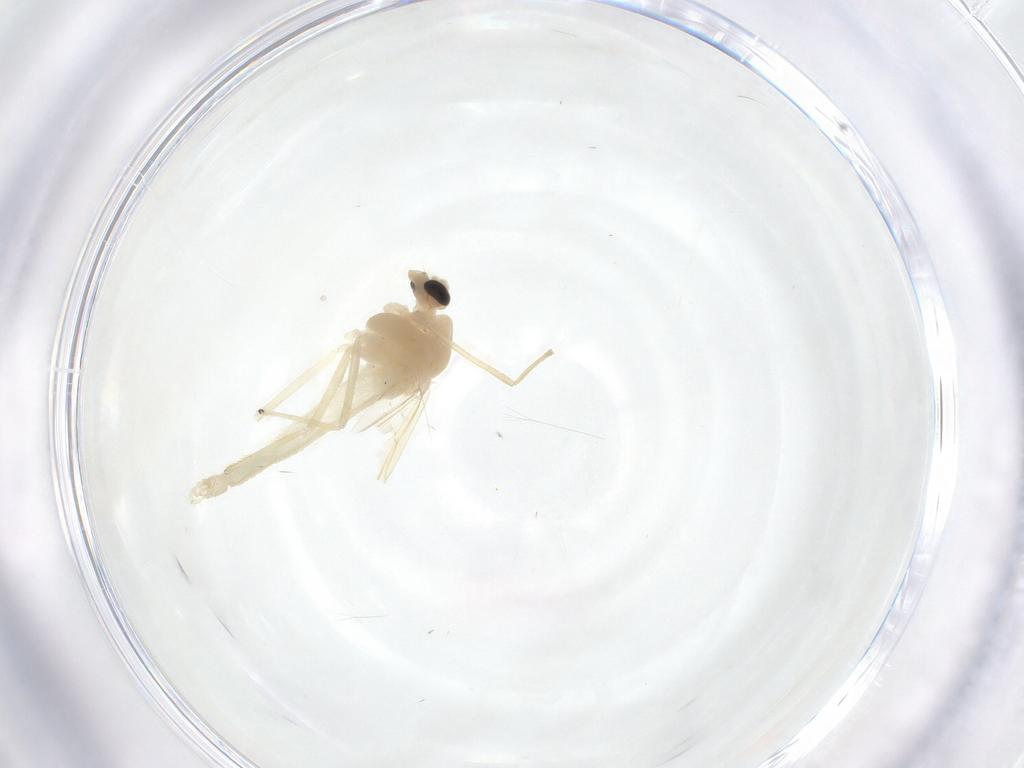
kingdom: Animalia
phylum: Arthropoda
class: Insecta
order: Diptera
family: Chironomidae
